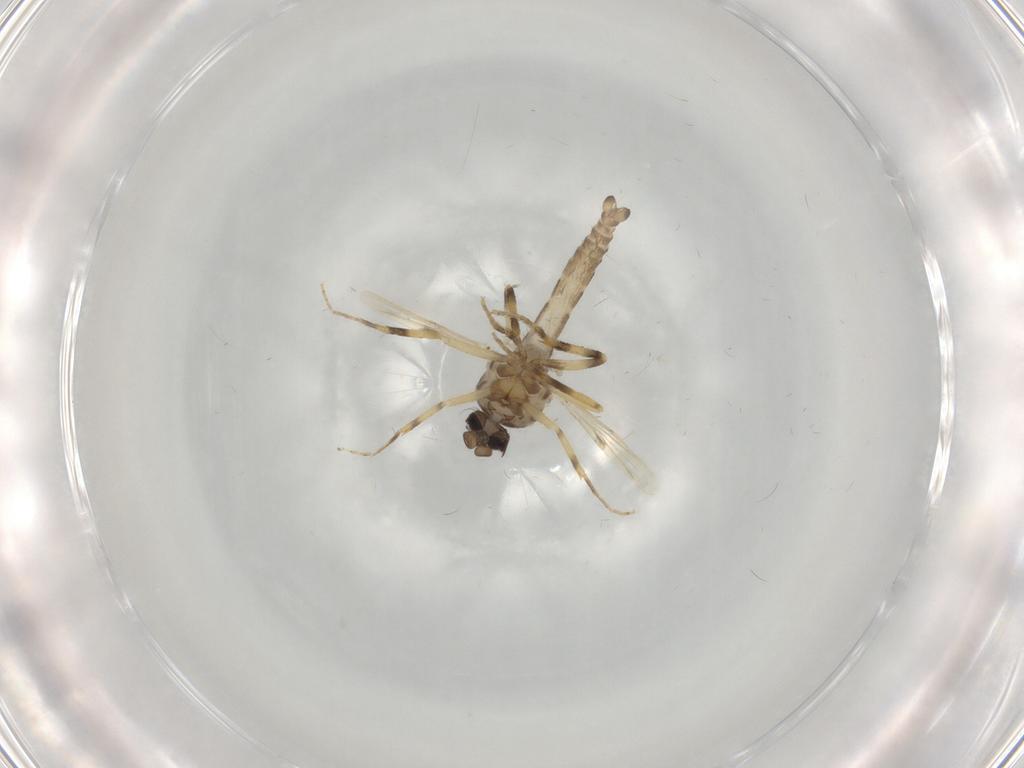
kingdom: Animalia
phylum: Arthropoda
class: Insecta
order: Diptera
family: Ceratopogonidae
